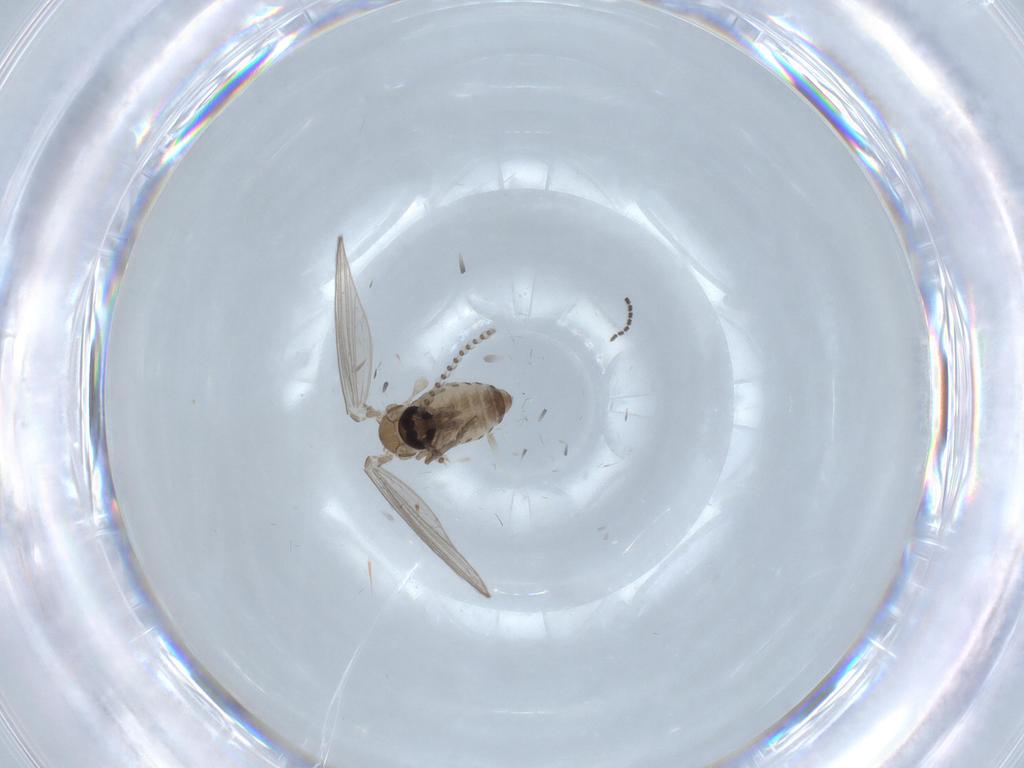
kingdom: Animalia
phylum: Arthropoda
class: Insecta
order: Diptera
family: Psychodidae
